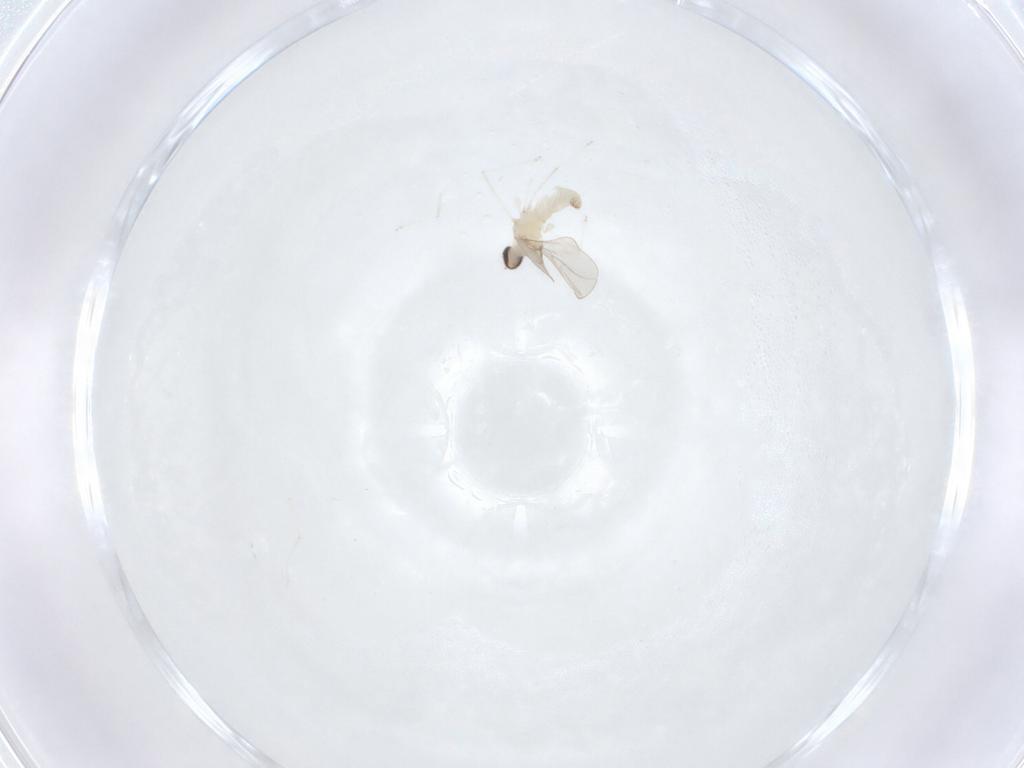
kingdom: Animalia
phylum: Arthropoda
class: Insecta
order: Diptera
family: Cecidomyiidae
